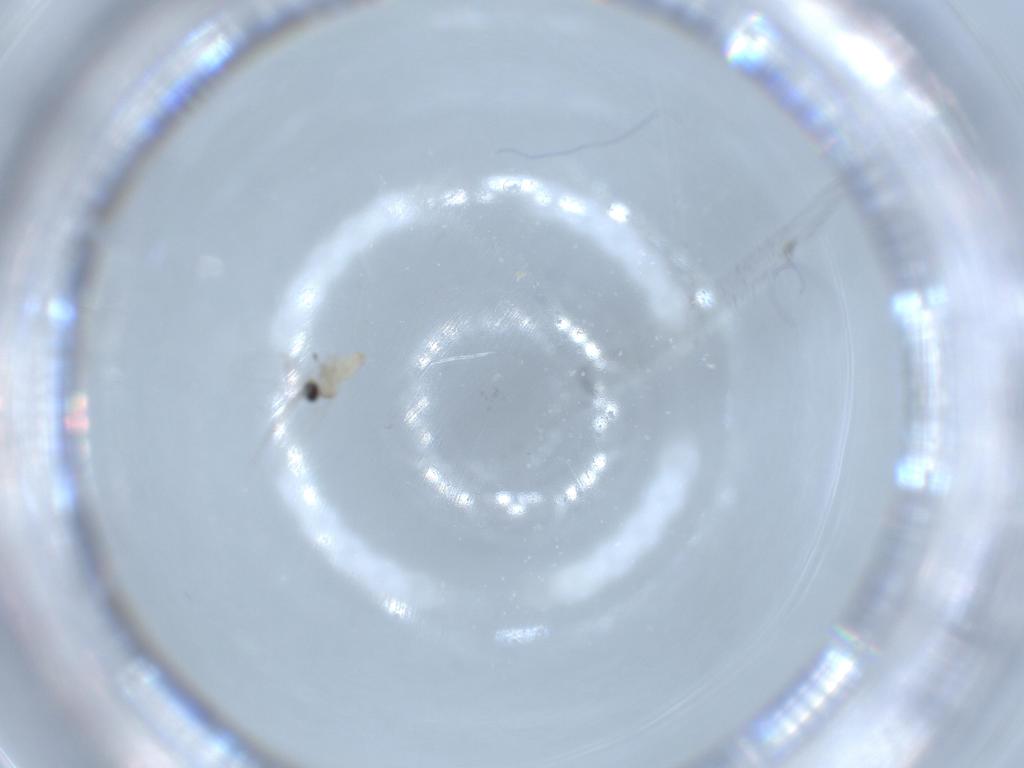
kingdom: Animalia
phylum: Arthropoda
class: Insecta
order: Diptera
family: Cecidomyiidae
